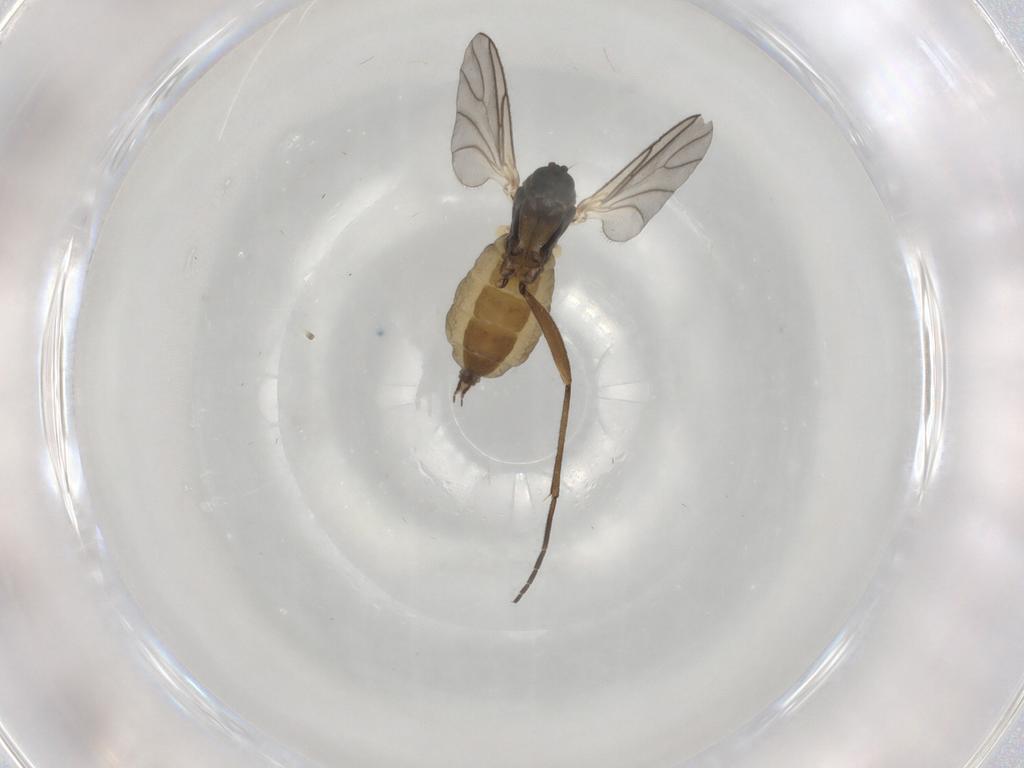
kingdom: Animalia
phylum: Arthropoda
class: Insecta
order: Diptera
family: Sciaridae
